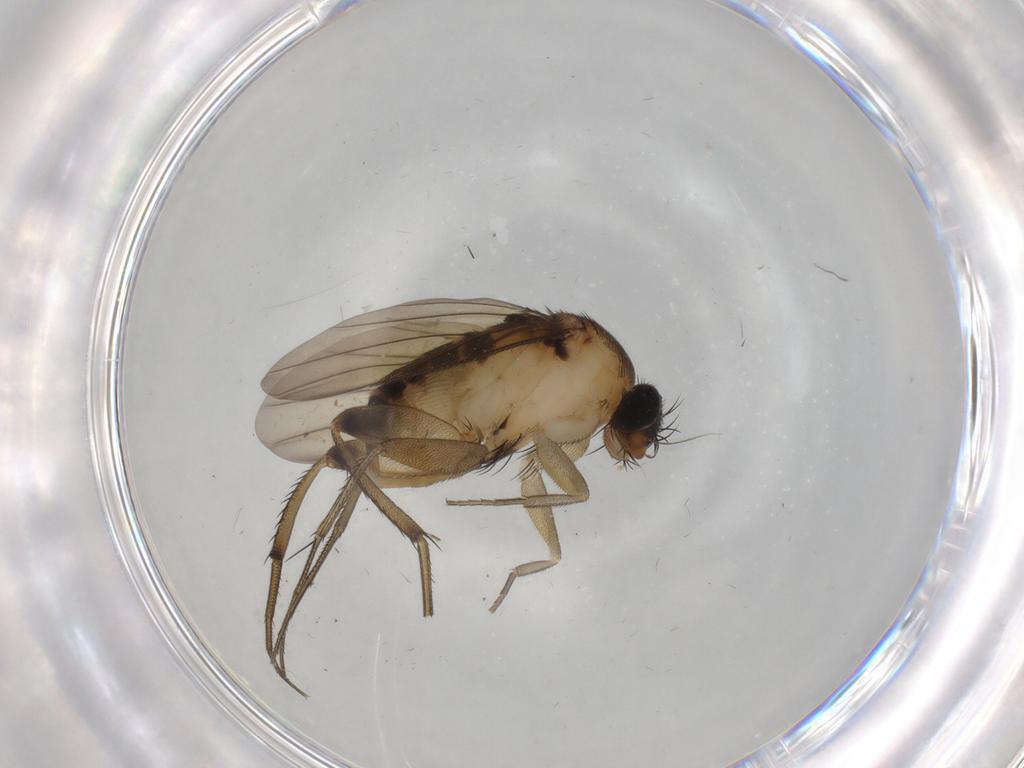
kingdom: Animalia
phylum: Arthropoda
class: Insecta
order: Diptera
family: Phoridae
